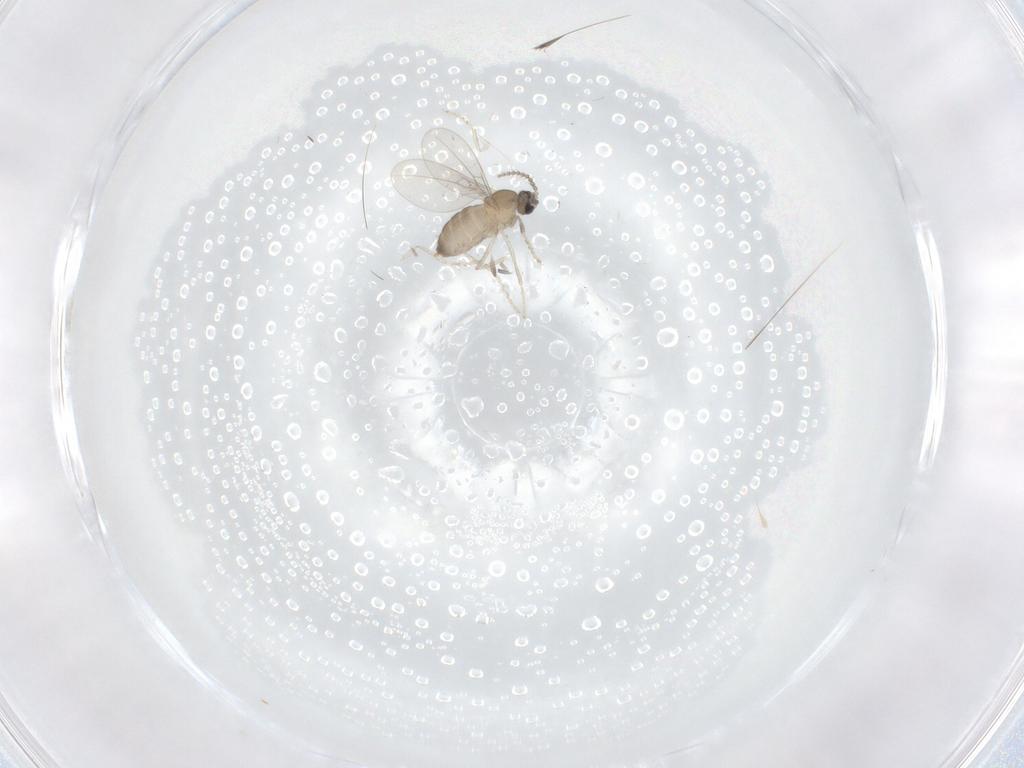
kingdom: Animalia
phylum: Arthropoda
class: Insecta
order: Diptera
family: Cecidomyiidae
